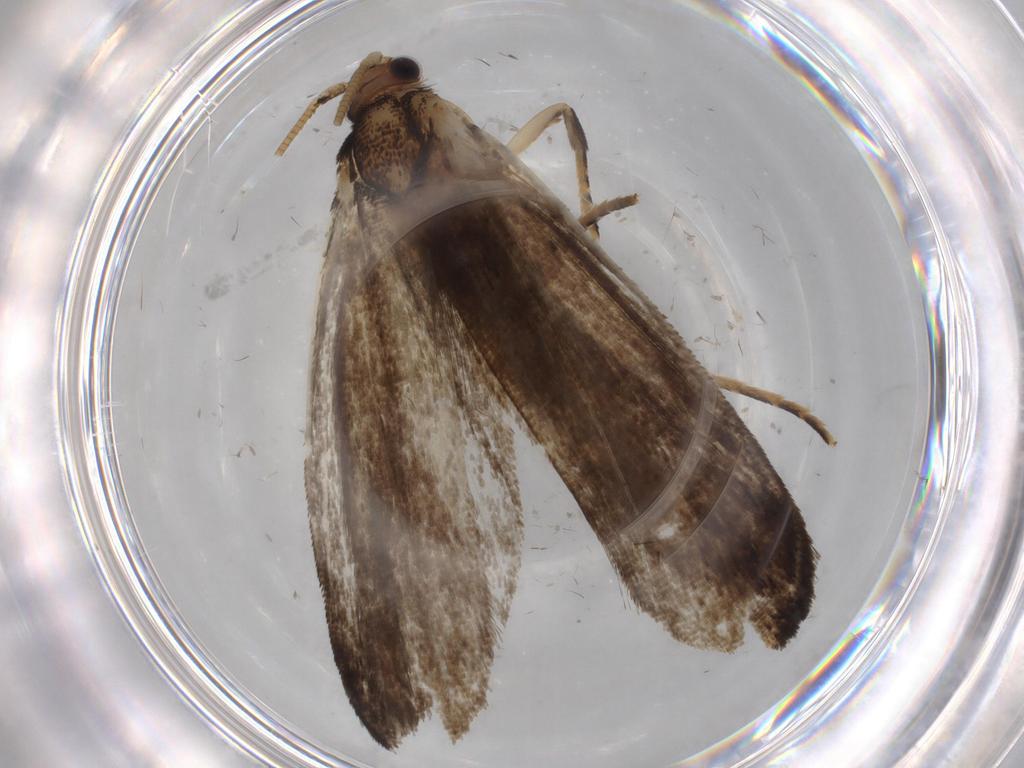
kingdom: Animalia
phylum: Arthropoda
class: Insecta
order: Lepidoptera
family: Tineidae
